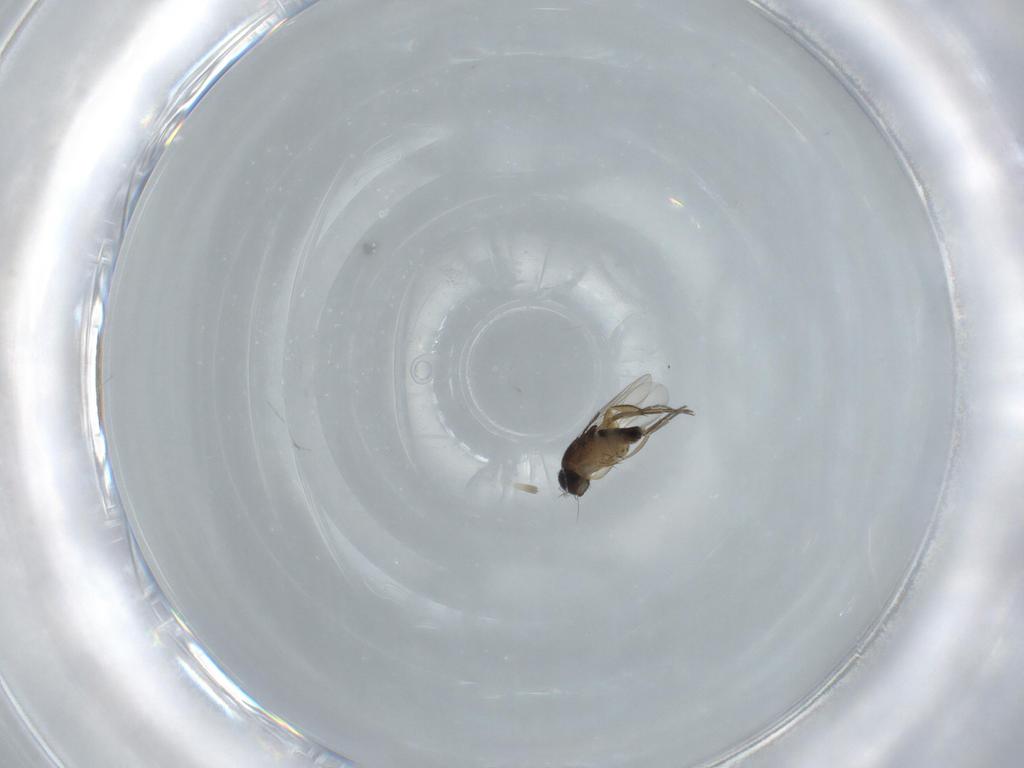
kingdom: Animalia
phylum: Arthropoda
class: Insecta
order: Diptera
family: Phoridae
